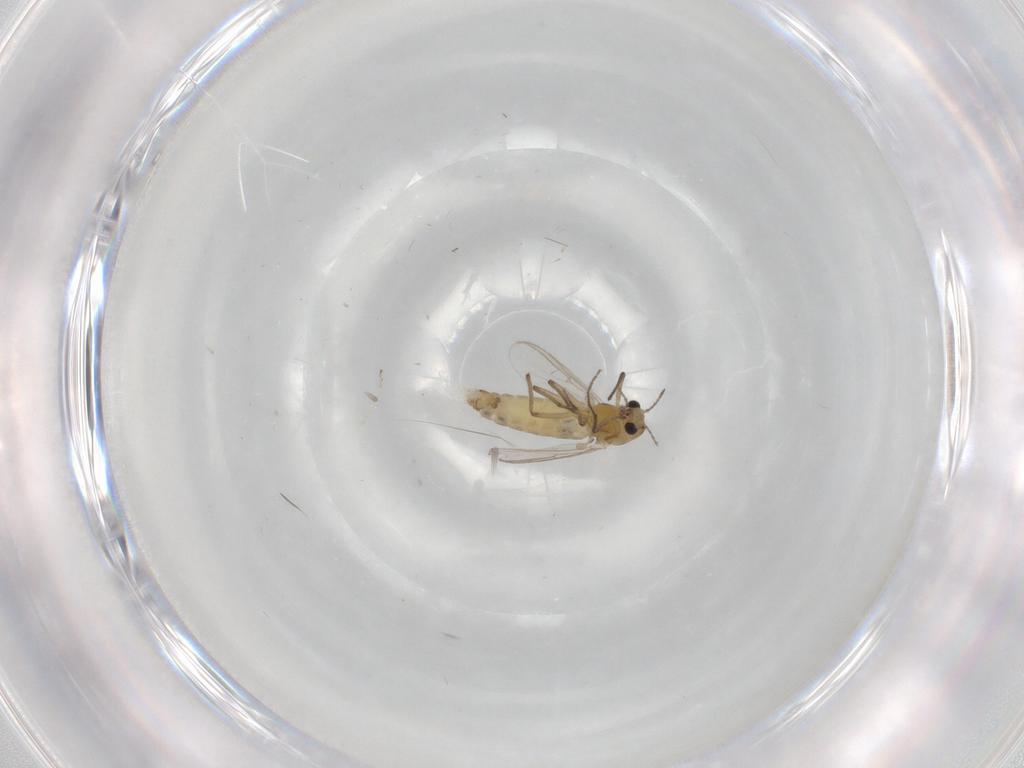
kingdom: Animalia
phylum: Arthropoda
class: Insecta
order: Diptera
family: Chironomidae
